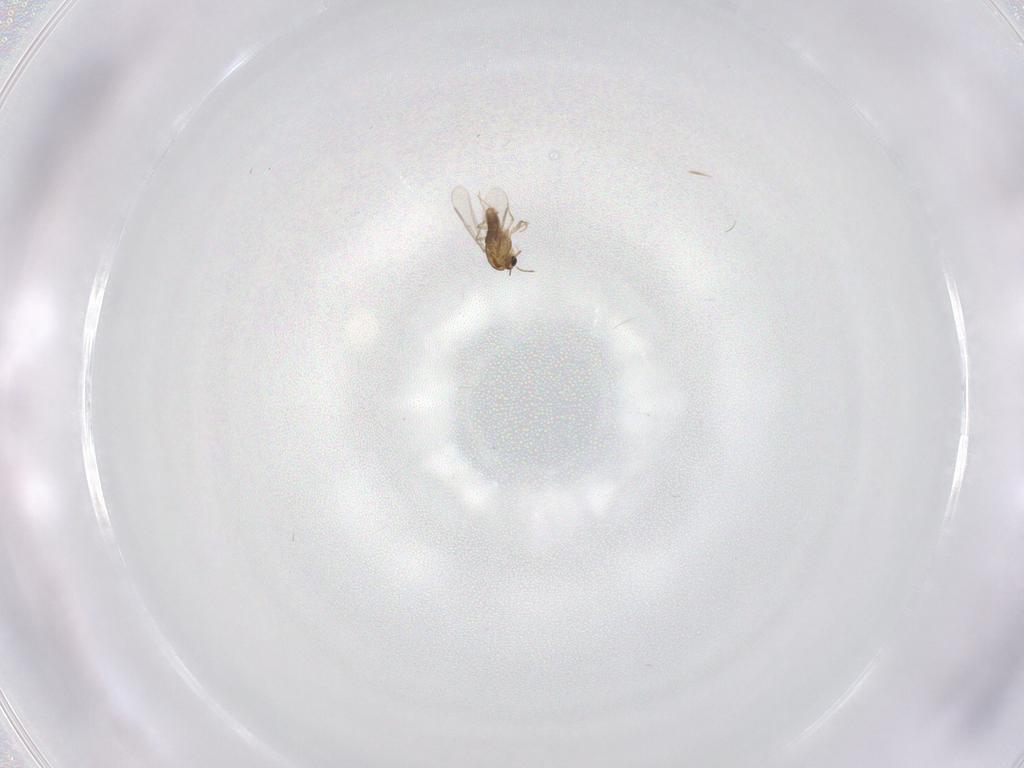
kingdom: Animalia
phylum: Arthropoda
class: Insecta
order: Diptera
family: Chironomidae
